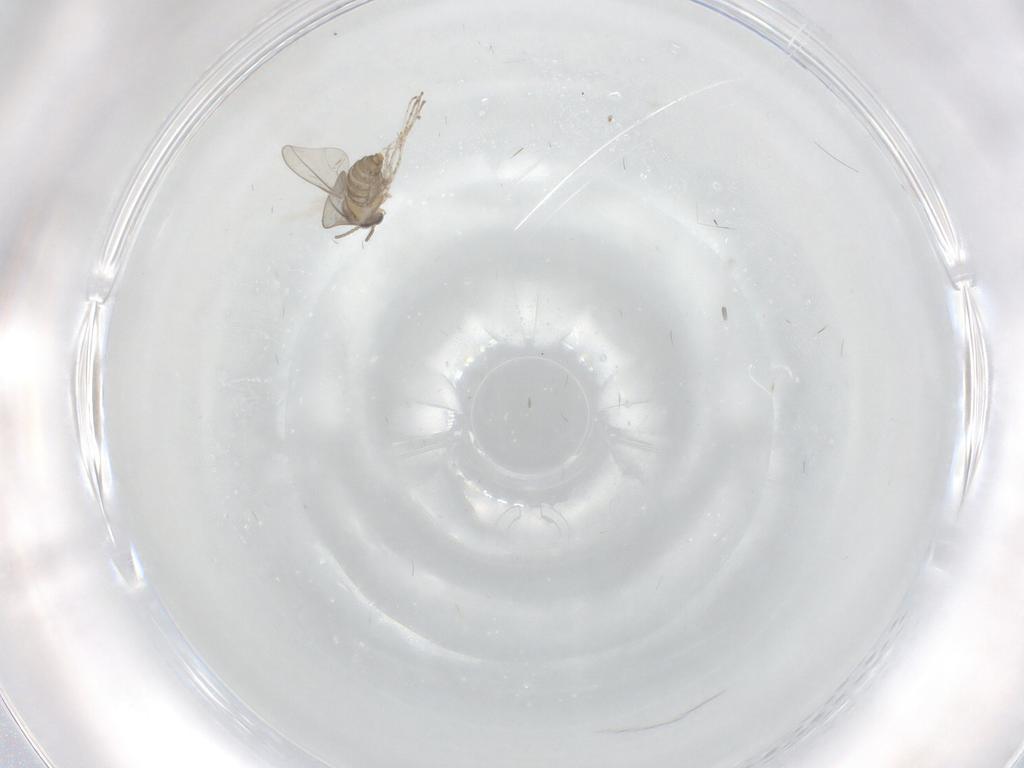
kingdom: Animalia
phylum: Arthropoda
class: Insecta
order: Diptera
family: Cecidomyiidae
